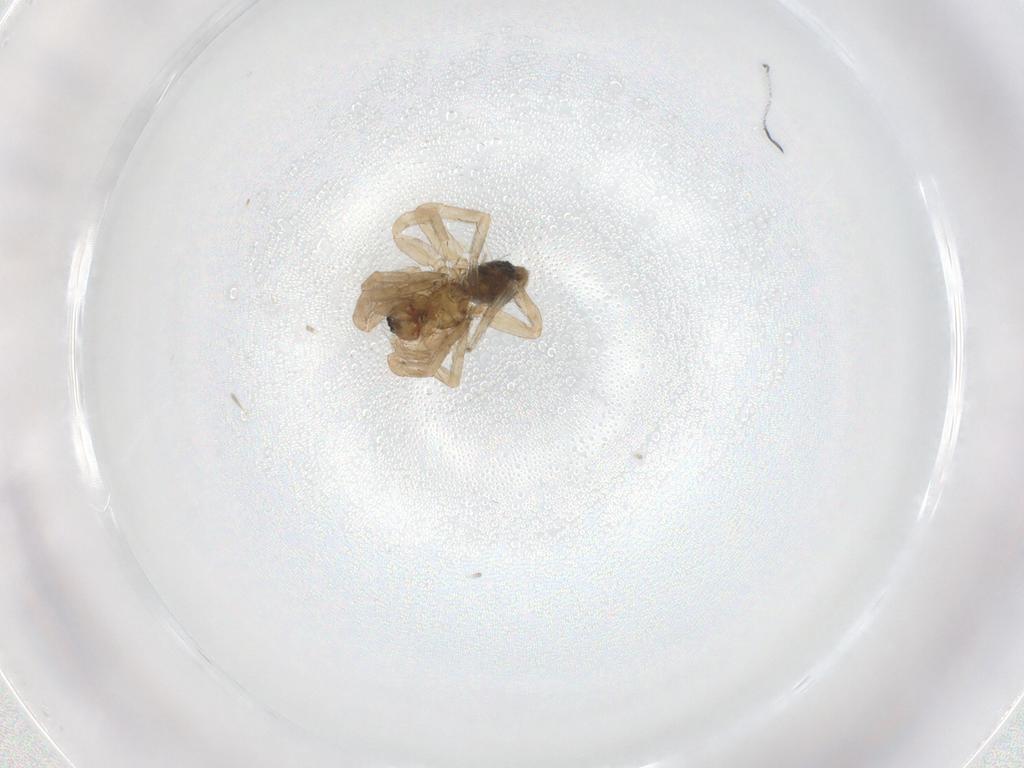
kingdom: Animalia
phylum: Arthropoda
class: Arachnida
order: Araneae
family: Hahniidae
